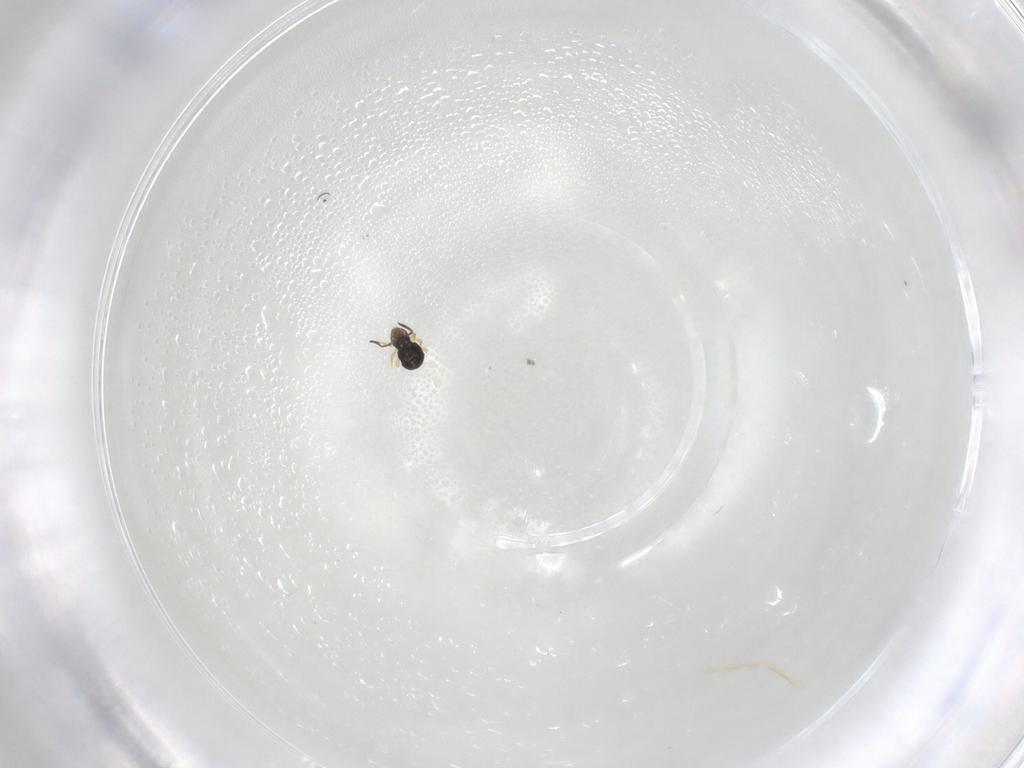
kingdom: Animalia
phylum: Arthropoda
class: Collembola
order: Symphypleona
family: Katiannidae
